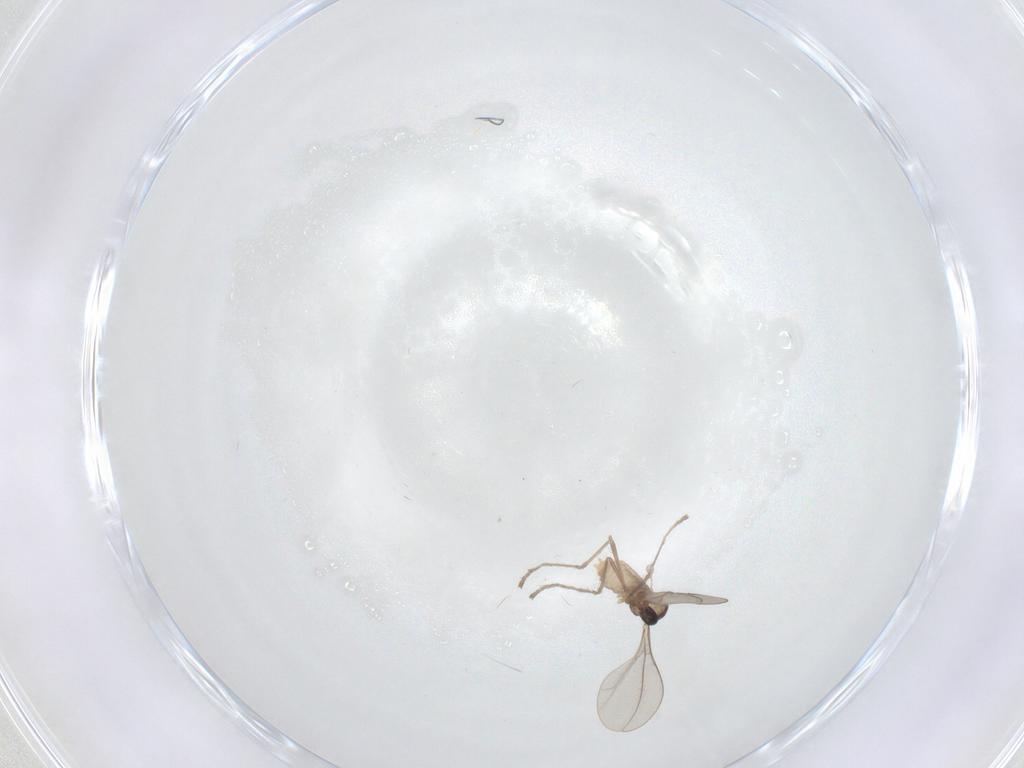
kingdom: Animalia
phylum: Arthropoda
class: Insecta
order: Diptera
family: Cecidomyiidae
